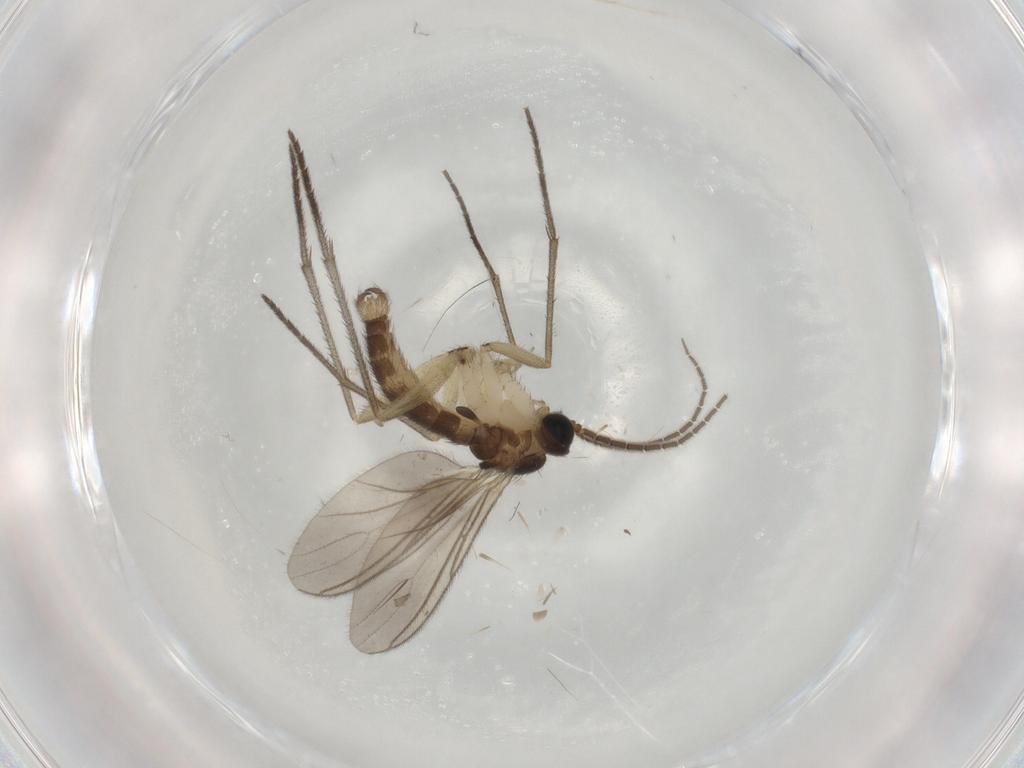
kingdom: Animalia
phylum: Arthropoda
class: Insecta
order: Diptera
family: Sciaridae
